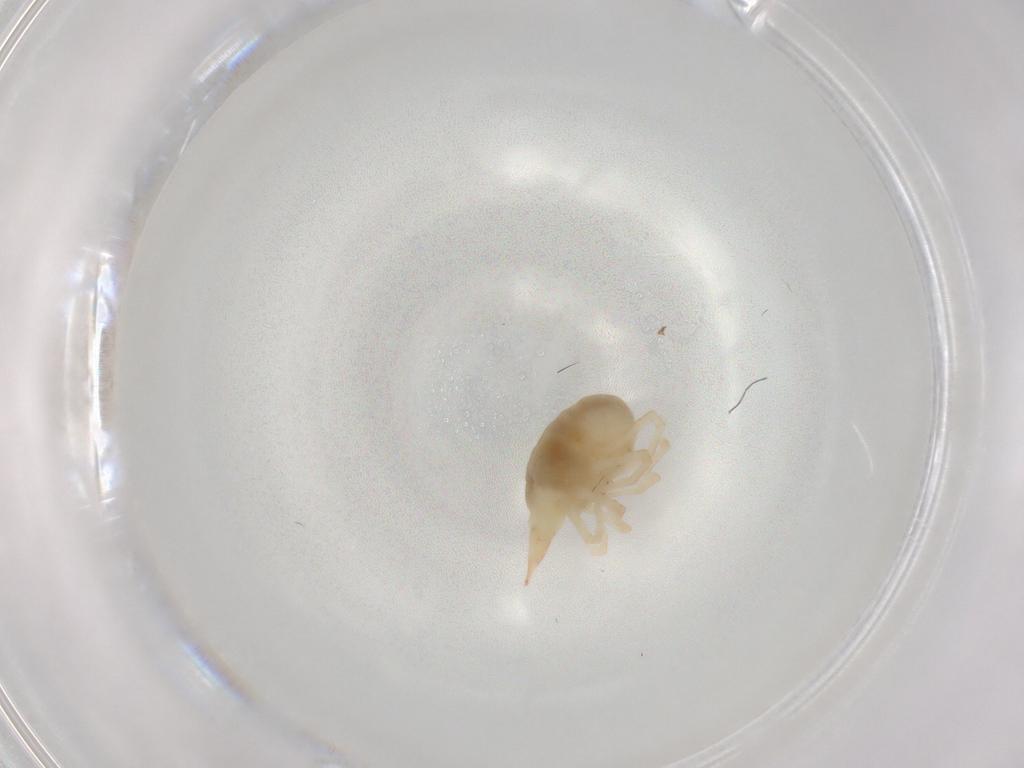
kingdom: Animalia
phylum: Arthropoda
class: Arachnida
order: Trombidiformes
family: Bdellidae
